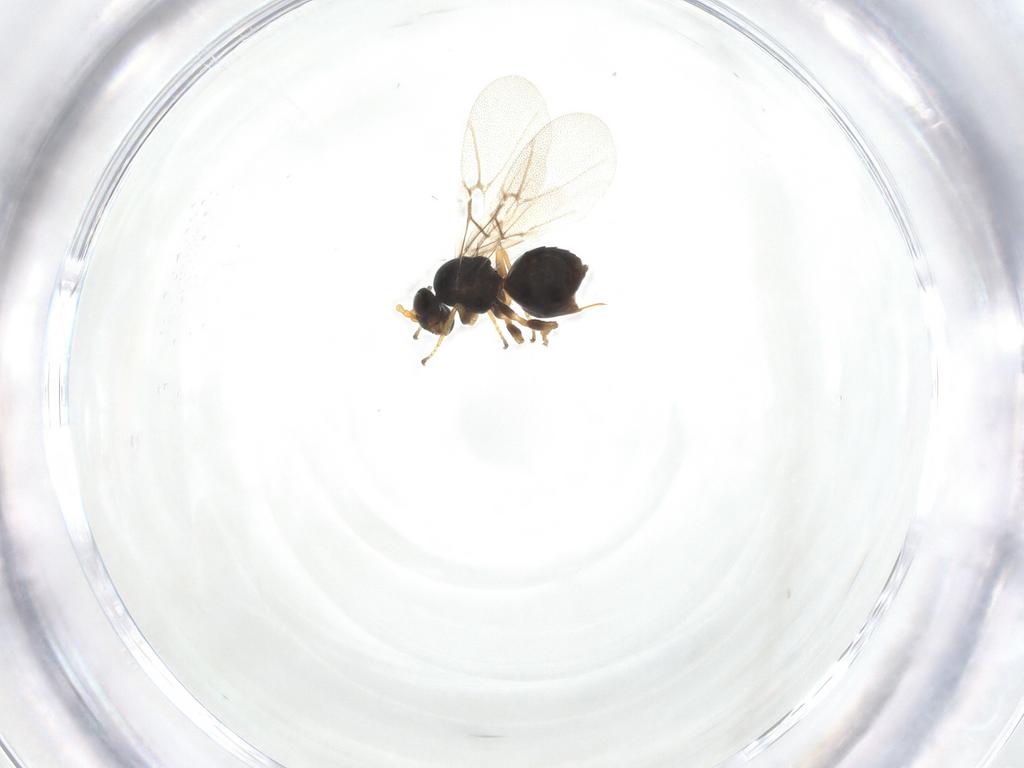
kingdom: Animalia
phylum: Arthropoda
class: Insecta
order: Hymenoptera
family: Cynipidae
